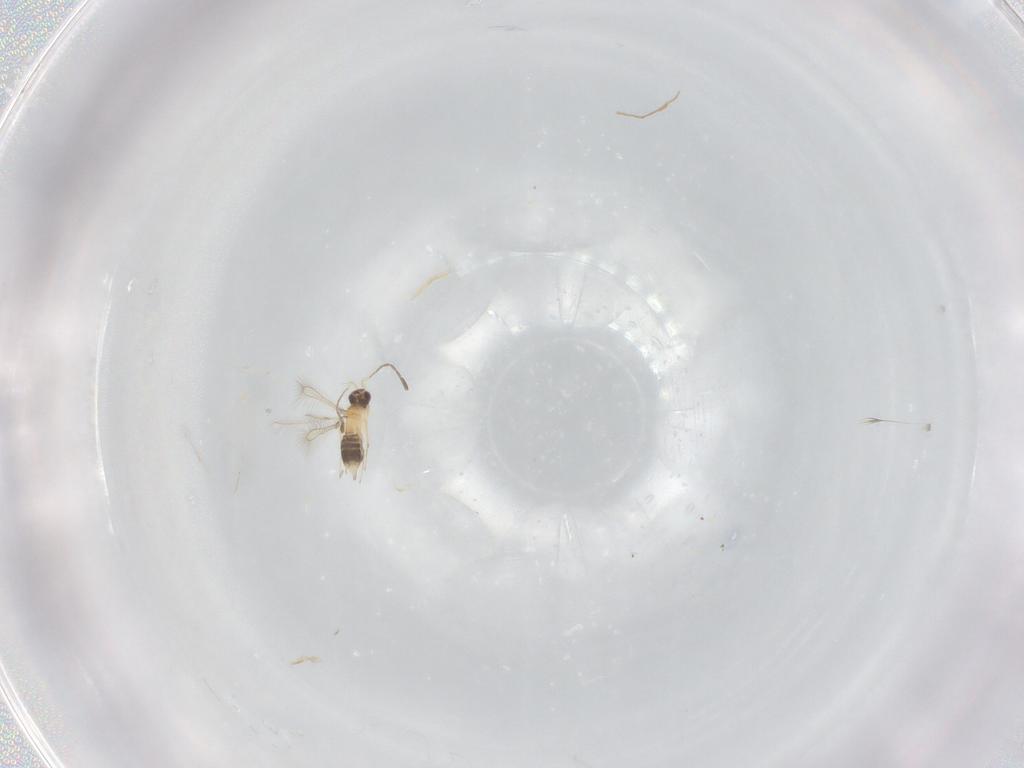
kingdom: Animalia
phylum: Arthropoda
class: Insecta
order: Hymenoptera
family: Mymaridae
